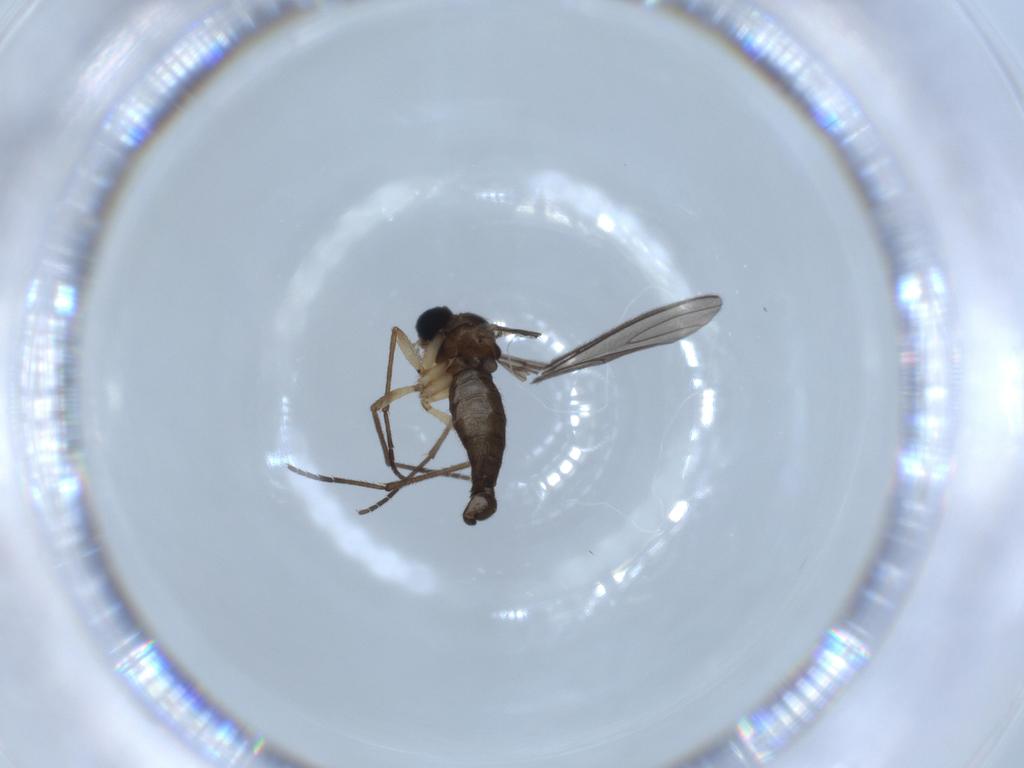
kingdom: Animalia
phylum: Arthropoda
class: Insecta
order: Diptera
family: Sciaridae
